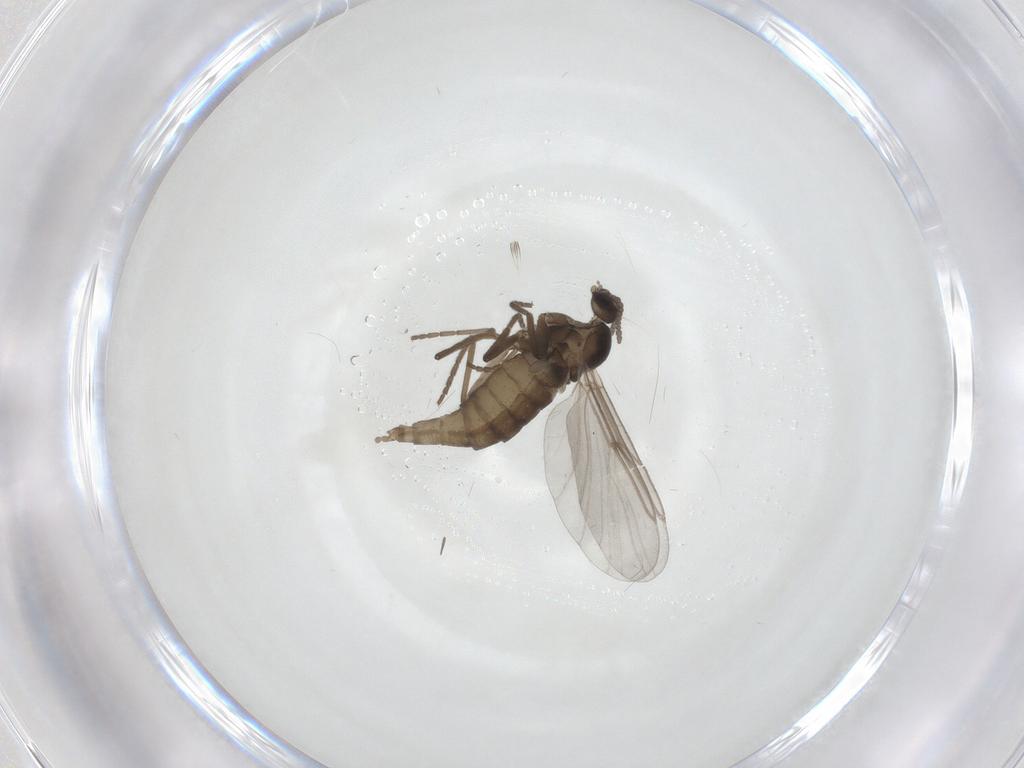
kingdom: Animalia
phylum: Arthropoda
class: Insecta
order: Diptera
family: Cecidomyiidae
